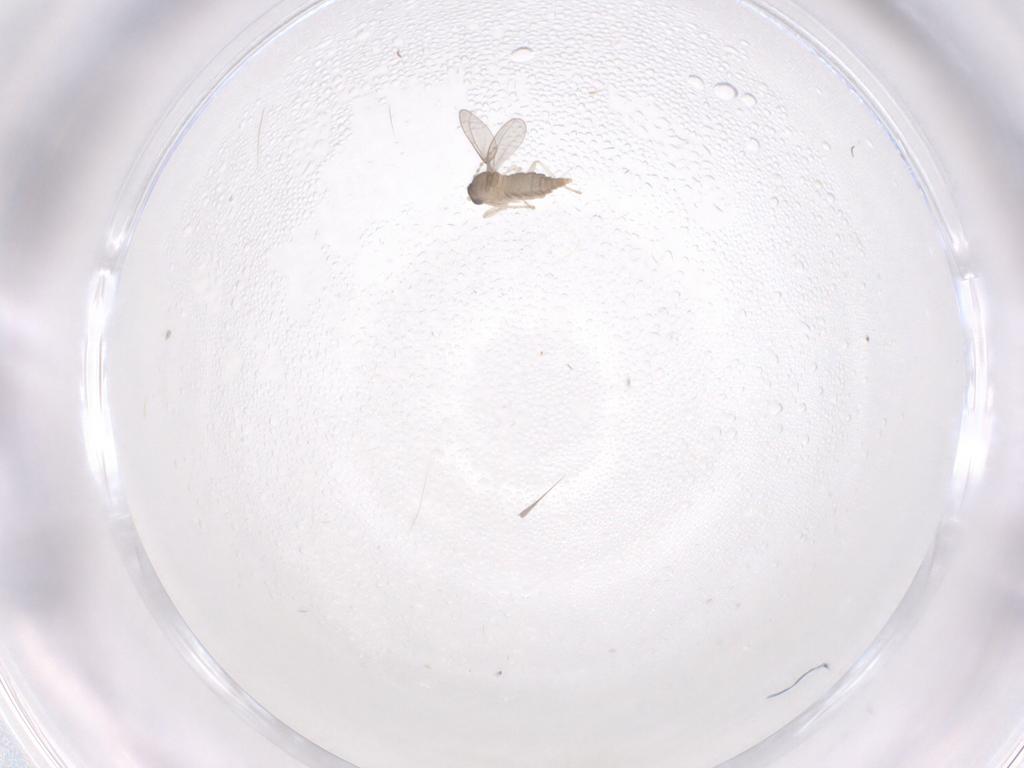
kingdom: Animalia
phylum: Arthropoda
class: Insecta
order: Diptera
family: Cecidomyiidae
